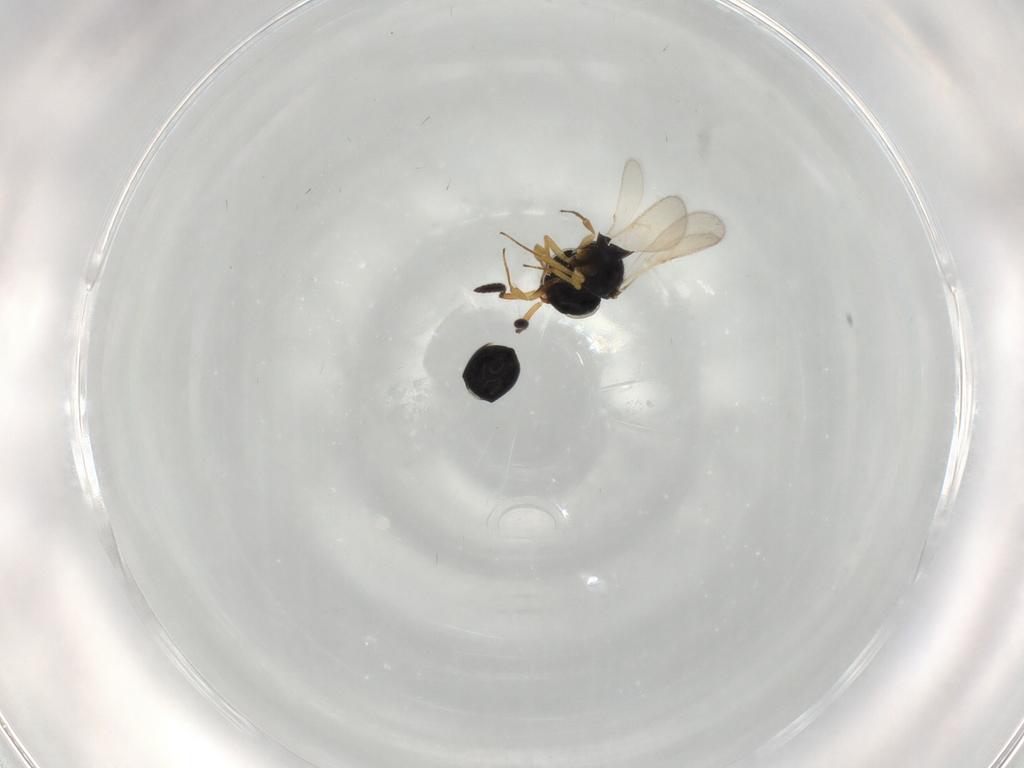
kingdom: Animalia
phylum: Arthropoda
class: Insecta
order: Hymenoptera
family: Scelionidae
